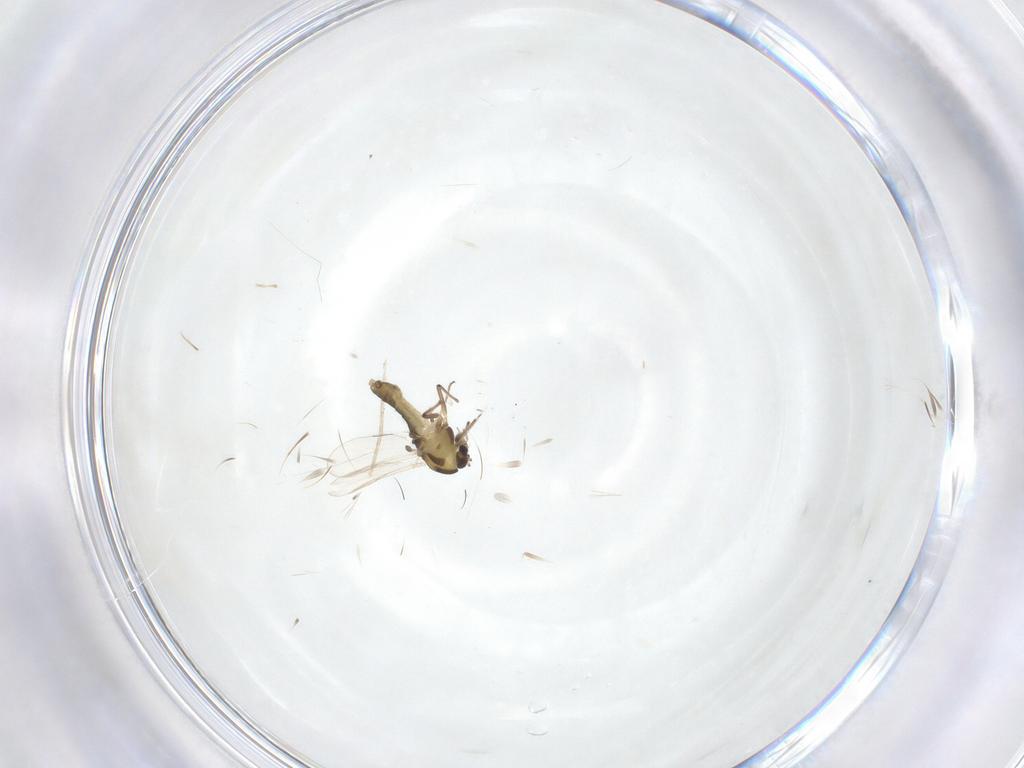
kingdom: Animalia
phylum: Arthropoda
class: Insecta
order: Diptera
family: Chironomidae
